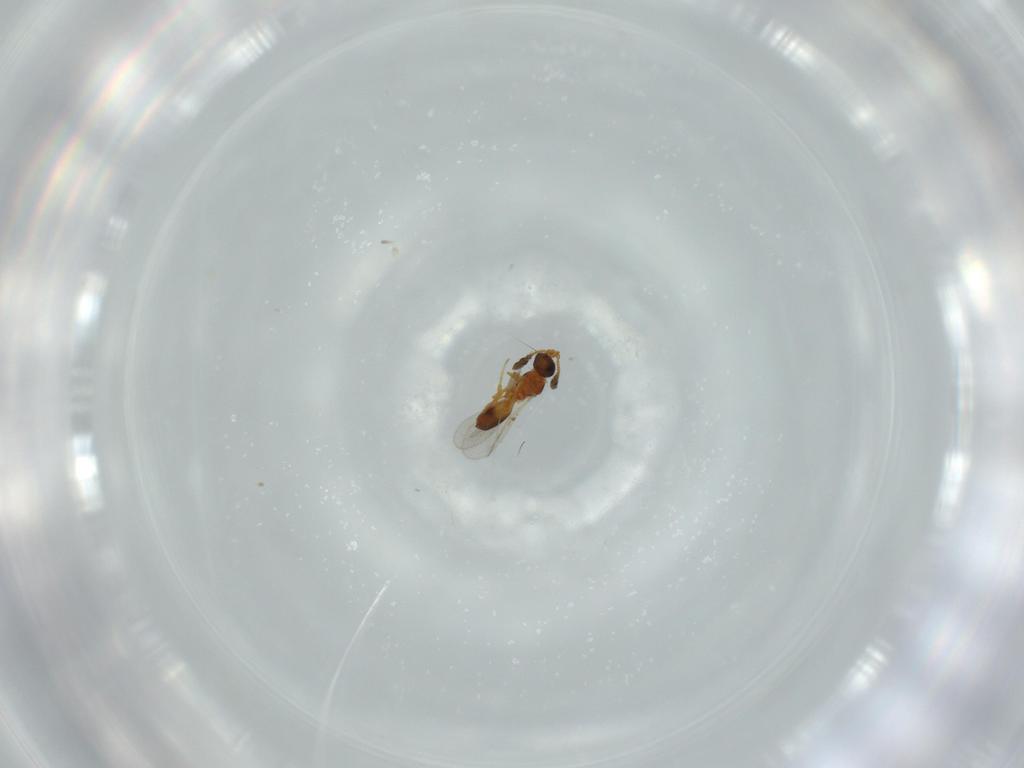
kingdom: Animalia
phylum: Arthropoda
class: Insecta
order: Hymenoptera
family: Diapriidae
